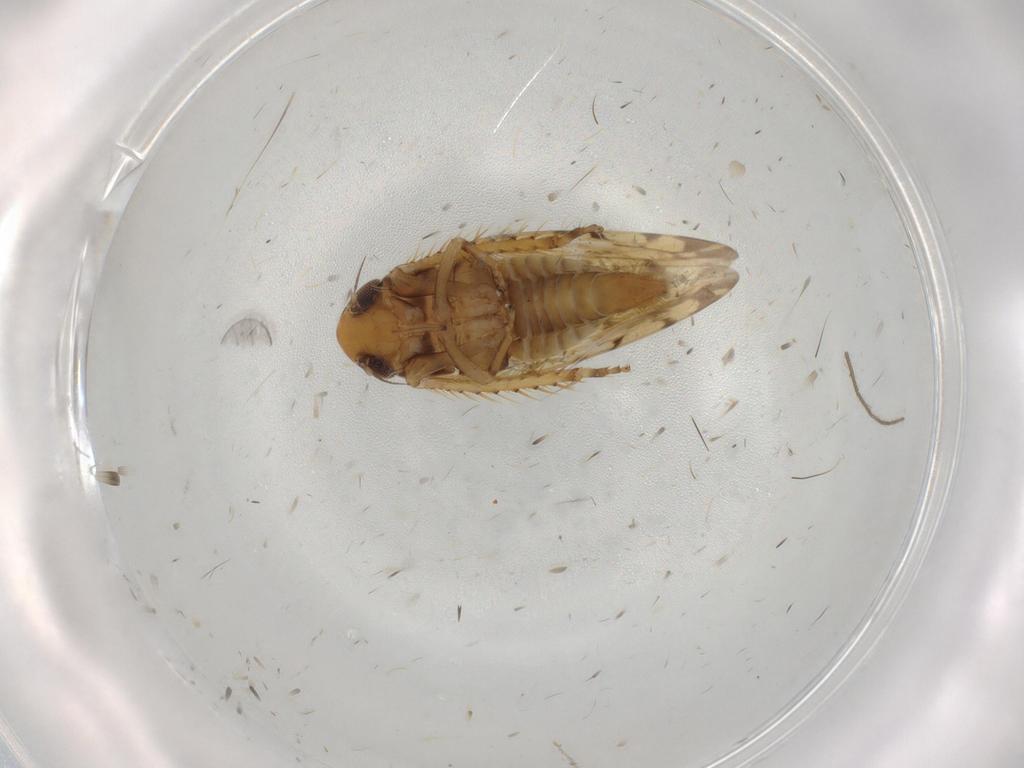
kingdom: Animalia
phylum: Arthropoda
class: Insecta
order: Hemiptera
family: Cicadellidae
